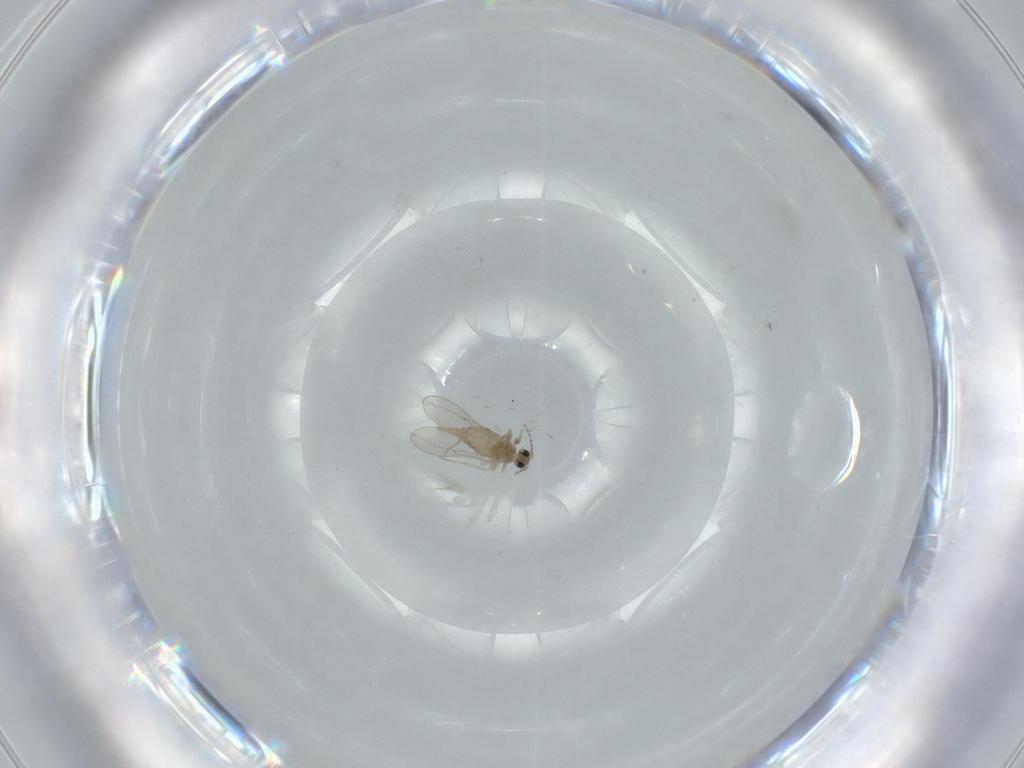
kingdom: Animalia
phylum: Arthropoda
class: Insecta
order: Diptera
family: Cecidomyiidae
